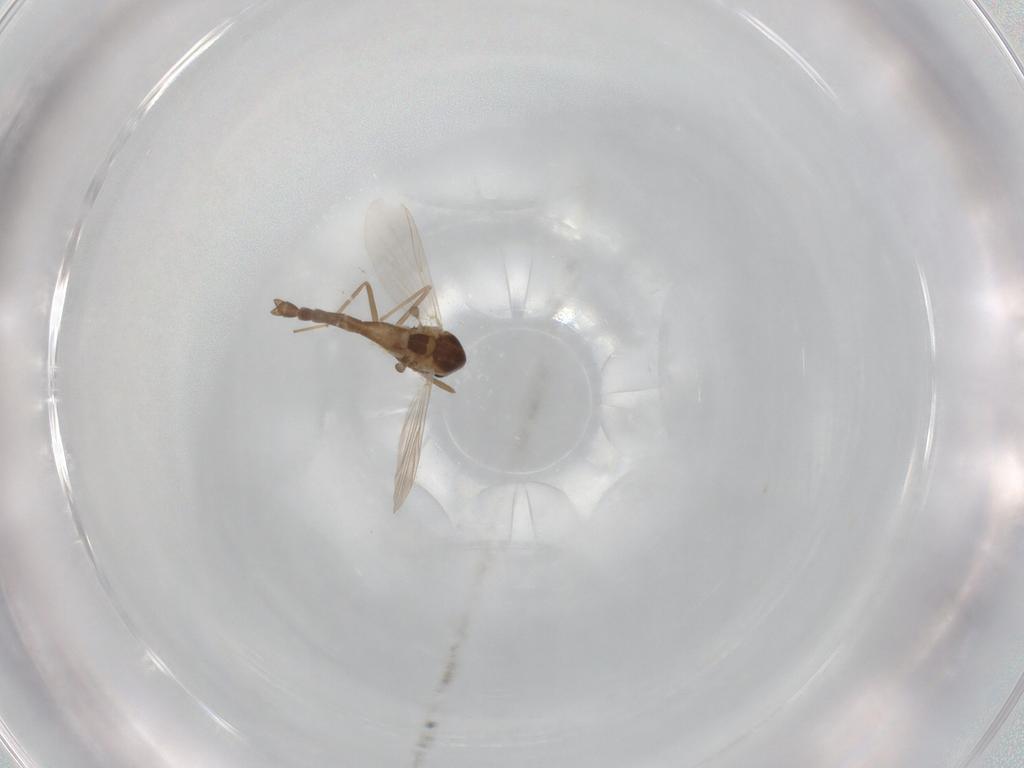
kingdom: Animalia
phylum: Arthropoda
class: Insecta
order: Diptera
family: Chironomidae
